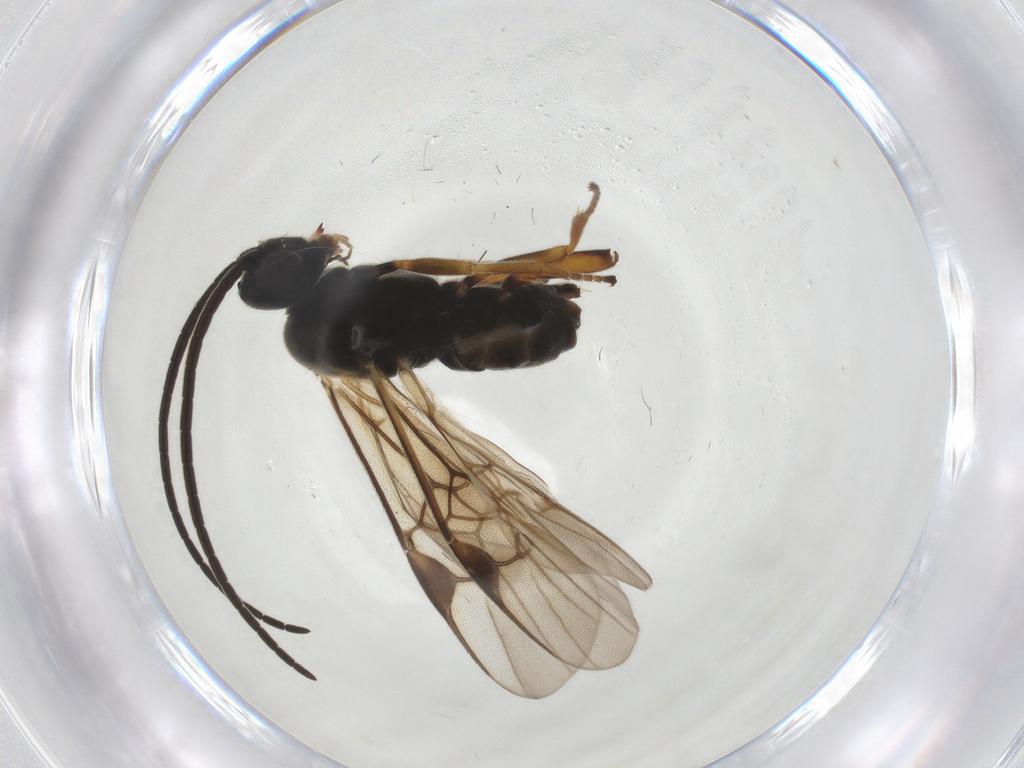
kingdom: Animalia
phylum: Arthropoda
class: Insecta
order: Hymenoptera
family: Braconidae
